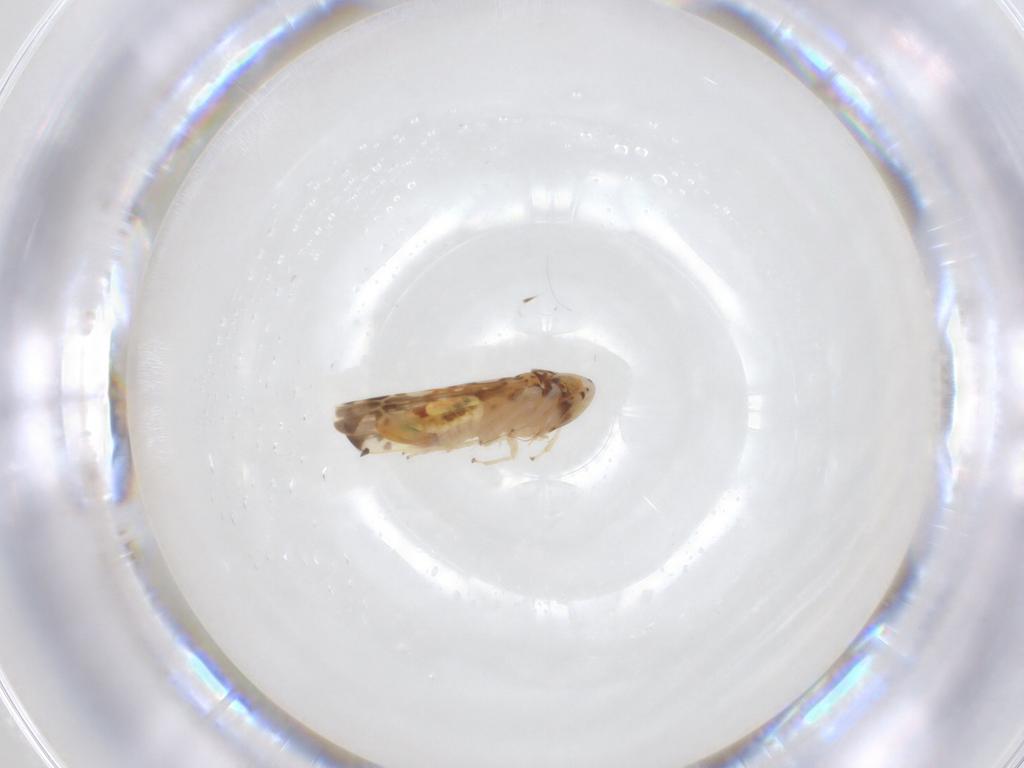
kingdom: Animalia
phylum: Arthropoda
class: Insecta
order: Hemiptera
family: Cicadellidae
